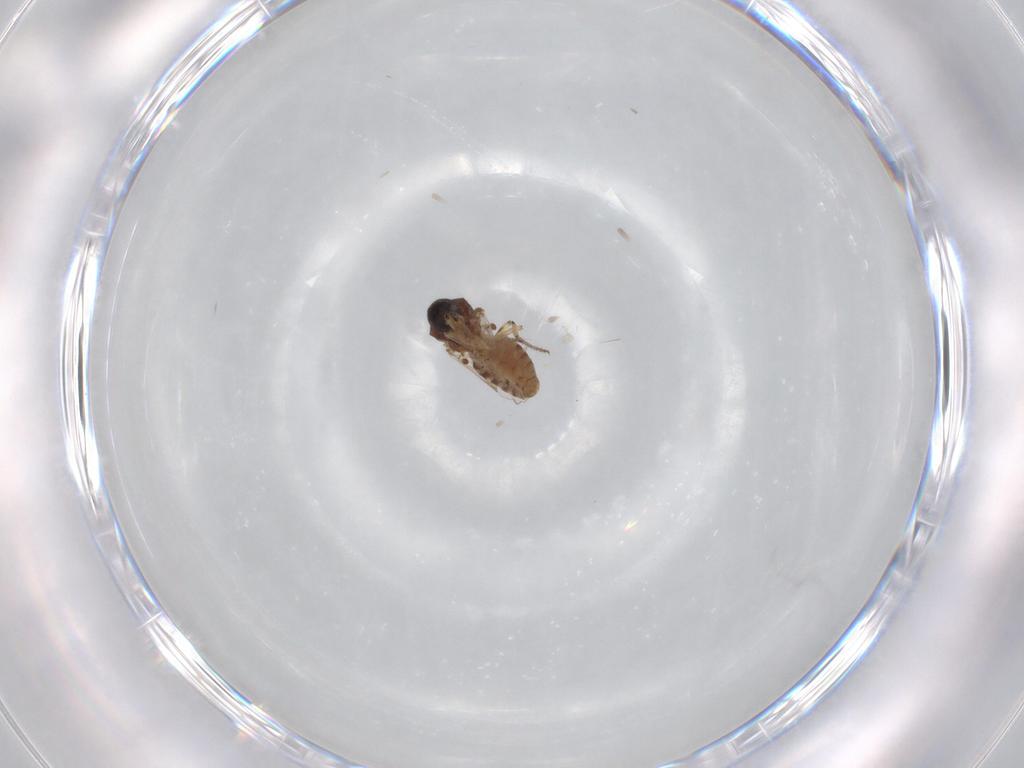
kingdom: Animalia
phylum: Arthropoda
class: Insecta
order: Diptera
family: Ceratopogonidae
